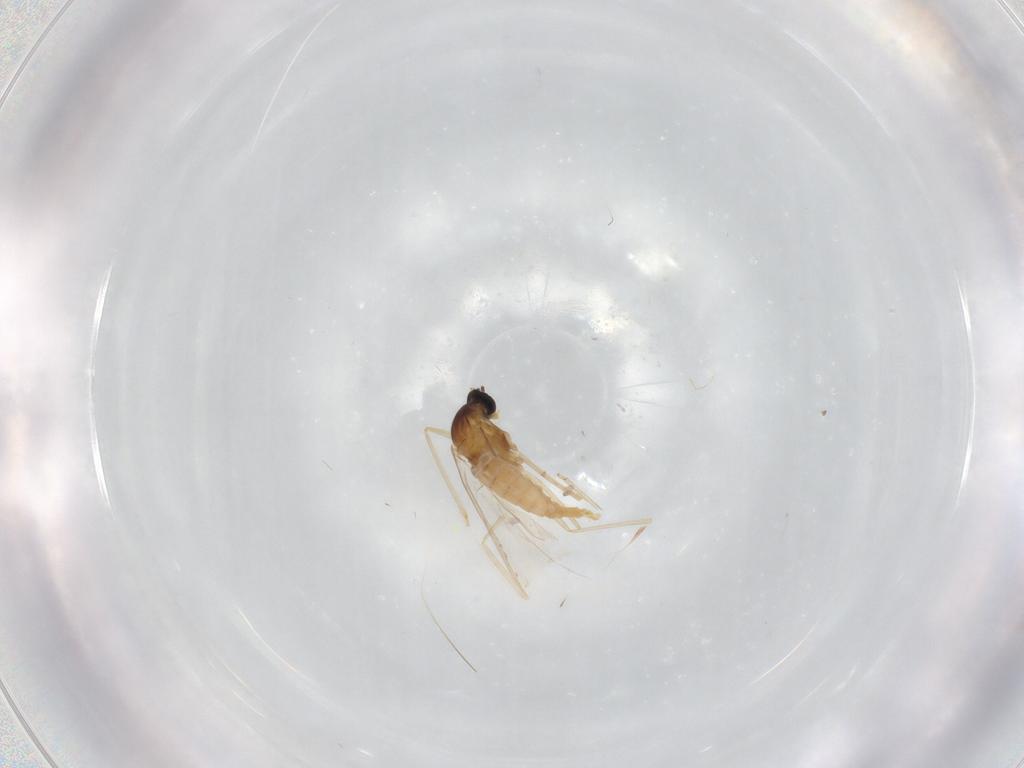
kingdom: Animalia
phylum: Arthropoda
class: Insecta
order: Diptera
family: Cecidomyiidae
